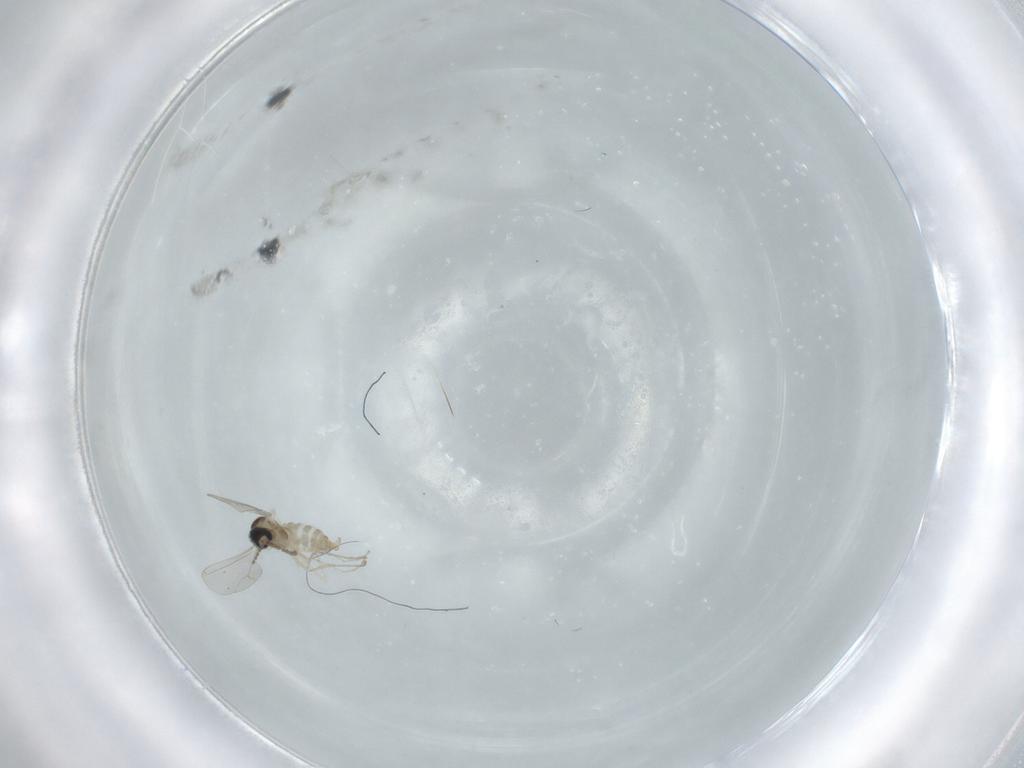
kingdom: Animalia
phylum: Arthropoda
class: Insecta
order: Diptera
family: Cecidomyiidae
